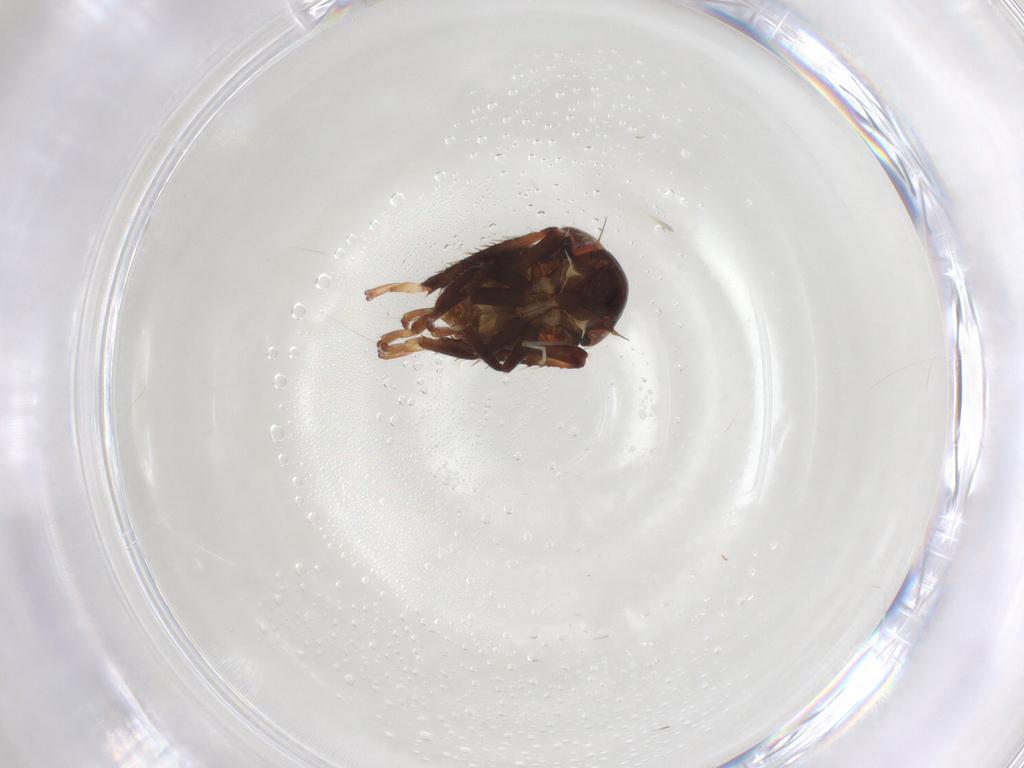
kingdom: Animalia
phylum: Arthropoda
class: Insecta
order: Hemiptera
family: Cicadellidae
